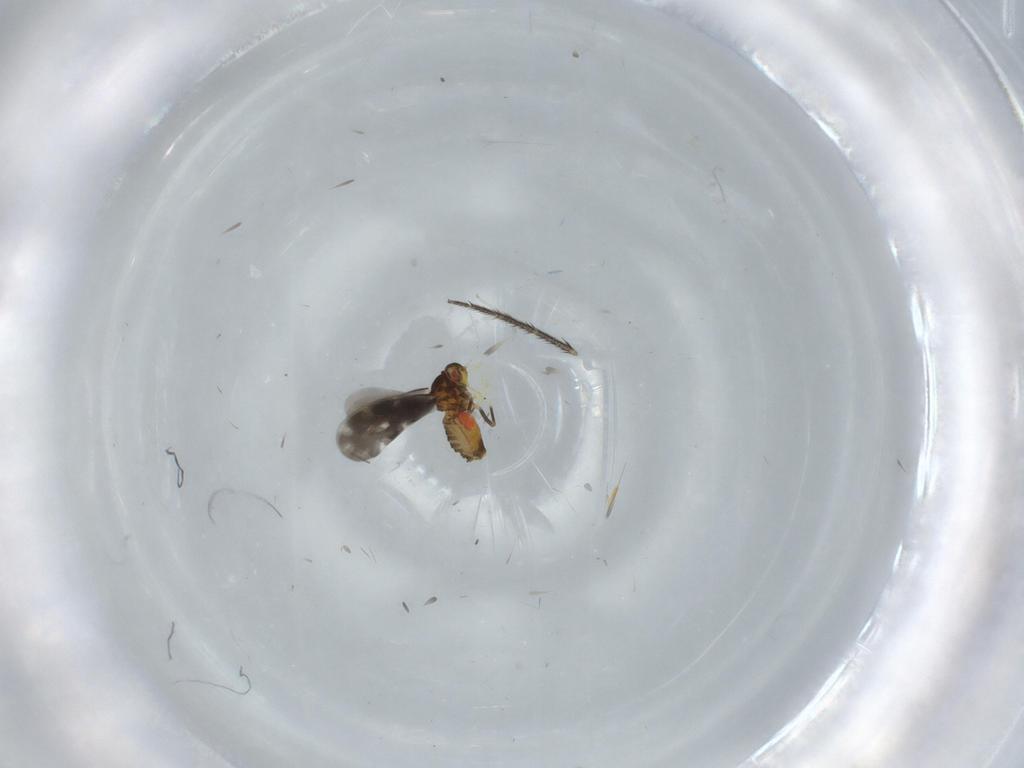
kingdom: Animalia
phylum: Arthropoda
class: Insecta
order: Hemiptera
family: Aleyrodidae
